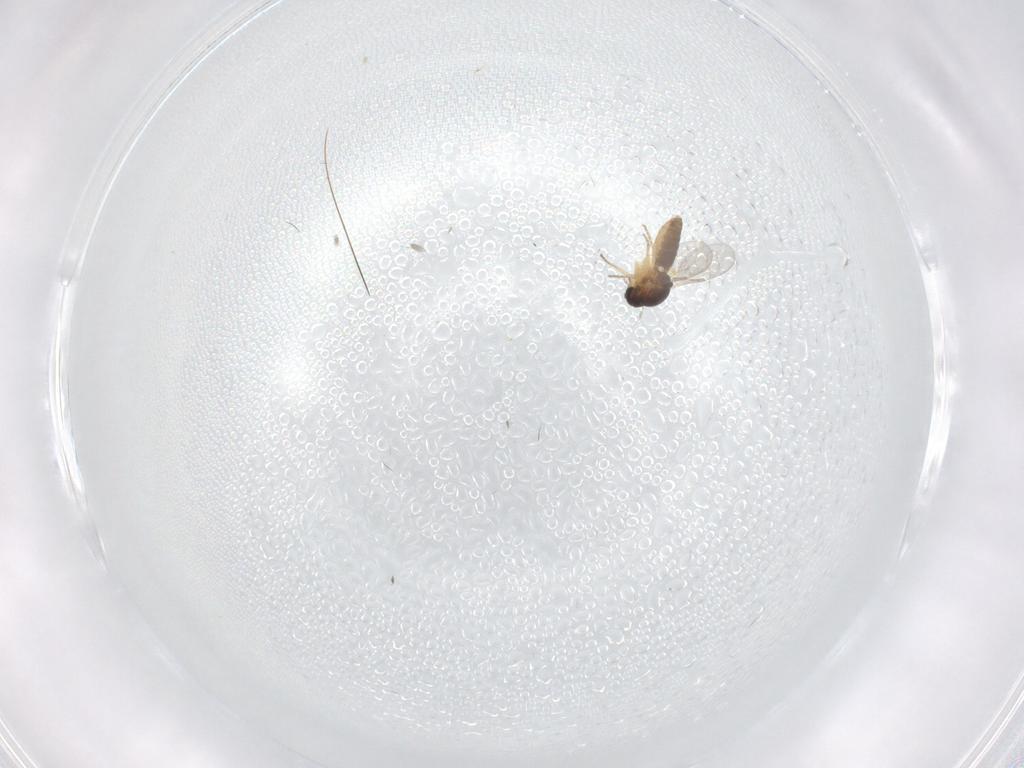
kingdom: Animalia
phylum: Arthropoda
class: Insecta
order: Diptera
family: Ceratopogonidae
